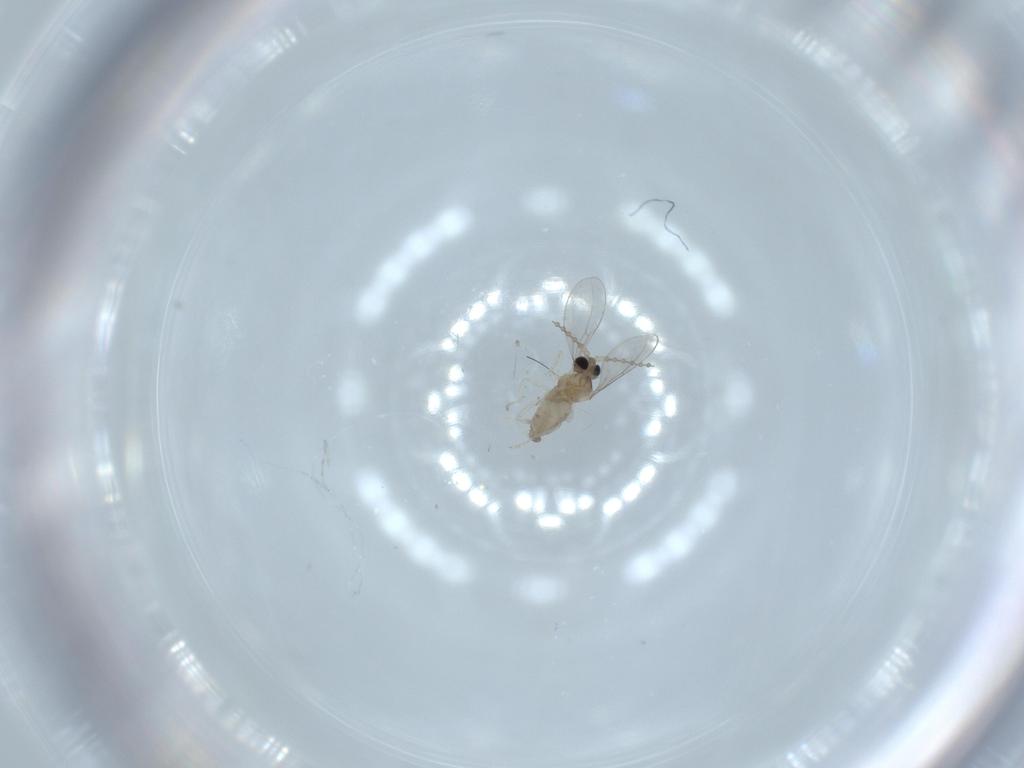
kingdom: Animalia
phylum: Arthropoda
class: Insecta
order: Diptera
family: Cecidomyiidae
